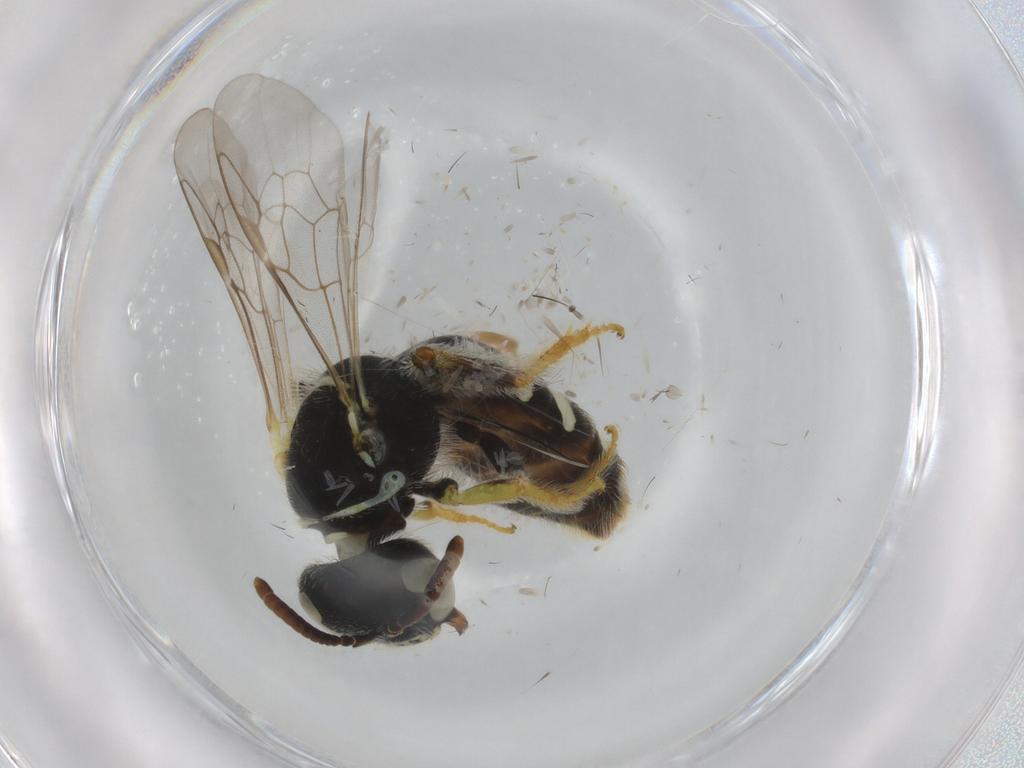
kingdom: Animalia
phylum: Arthropoda
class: Insecta
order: Hymenoptera
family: Halictidae
